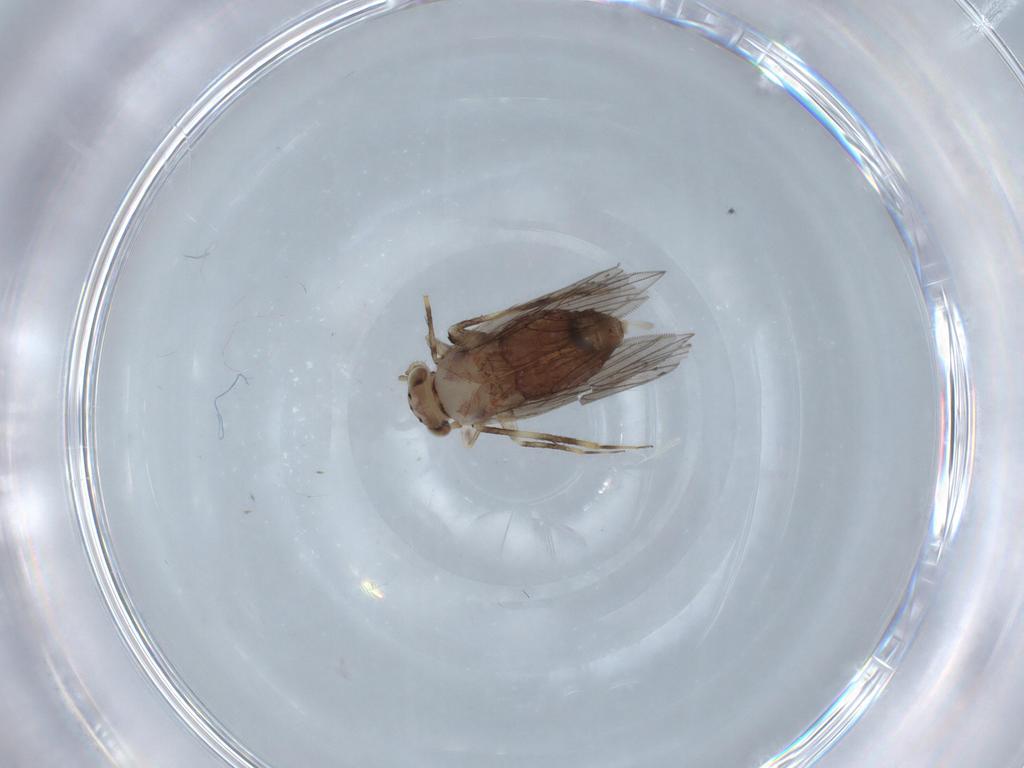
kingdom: Animalia
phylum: Arthropoda
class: Insecta
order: Psocodea
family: Lepidopsocidae
